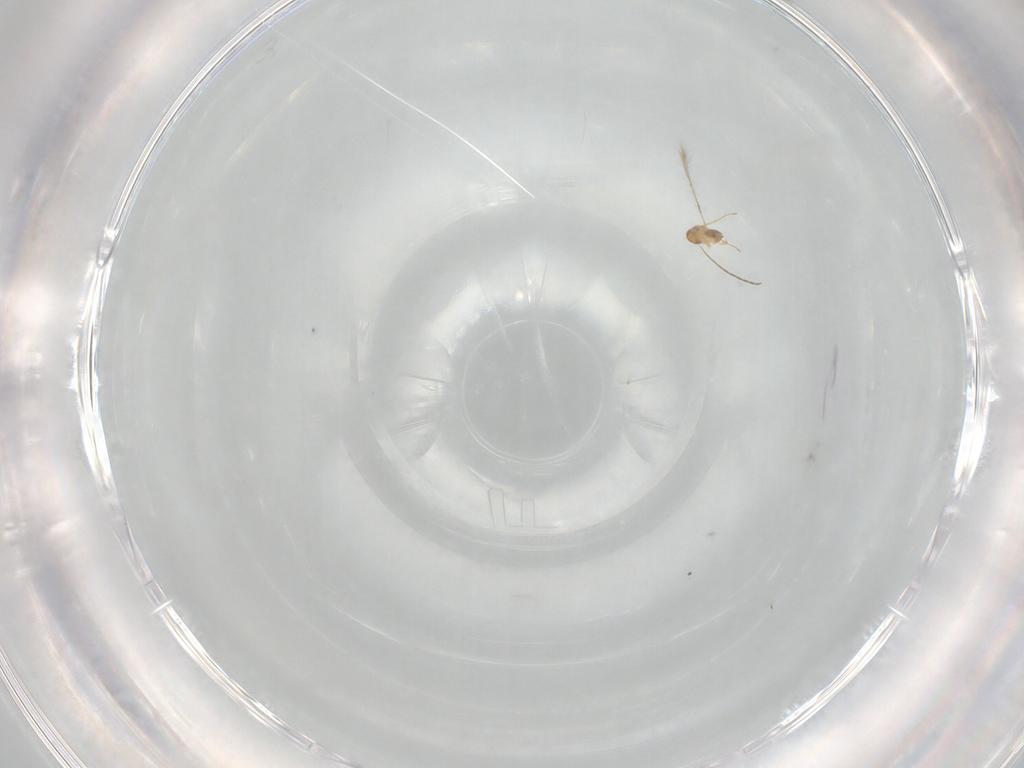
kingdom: Animalia
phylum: Arthropoda
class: Insecta
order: Hymenoptera
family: Mymaridae
